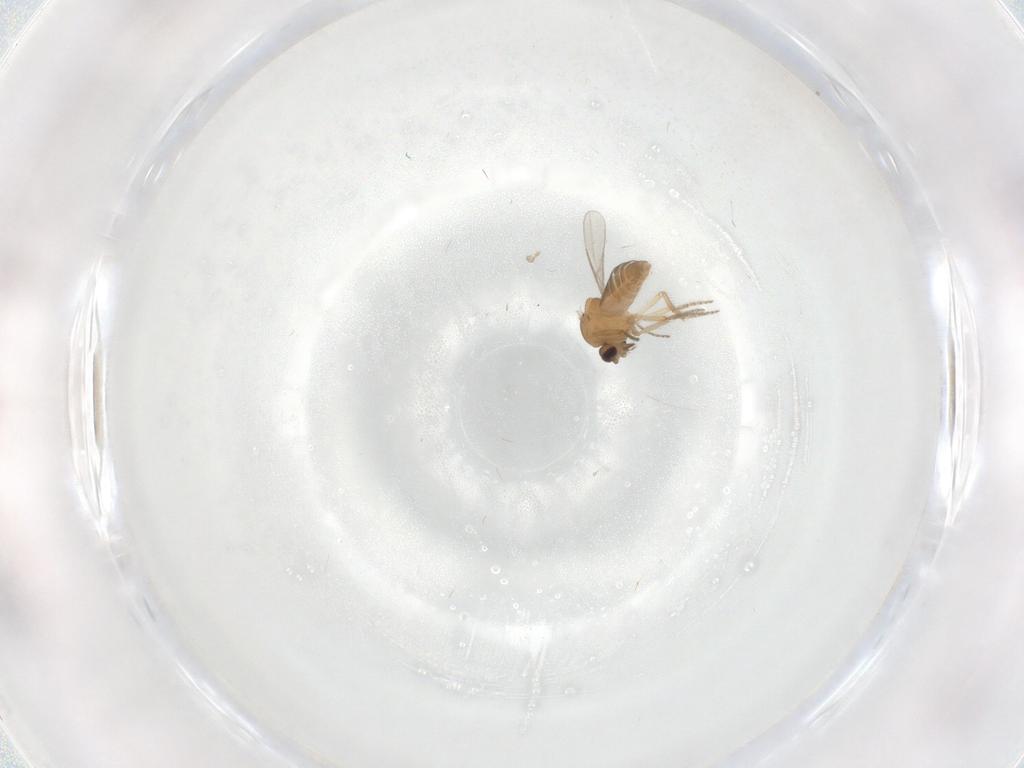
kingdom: Animalia
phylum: Arthropoda
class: Insecta
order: Diptera
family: Chironomidae
